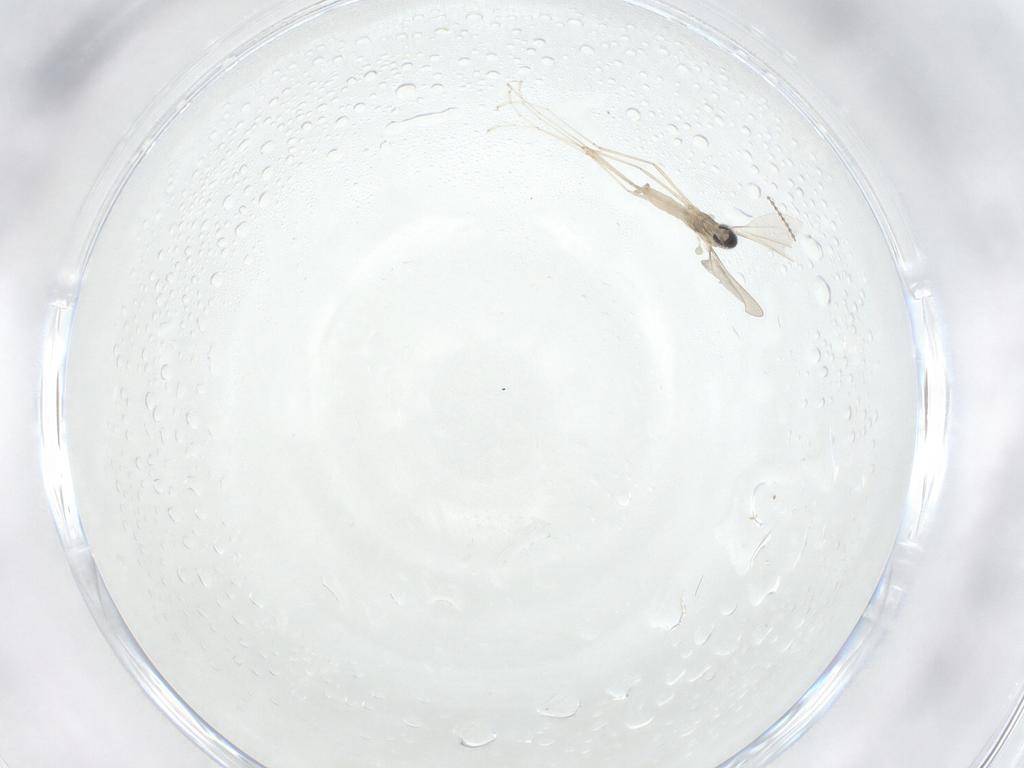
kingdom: Animalia
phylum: Arthropoda
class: Insecta
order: Diptera
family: Cecidomyiidae
